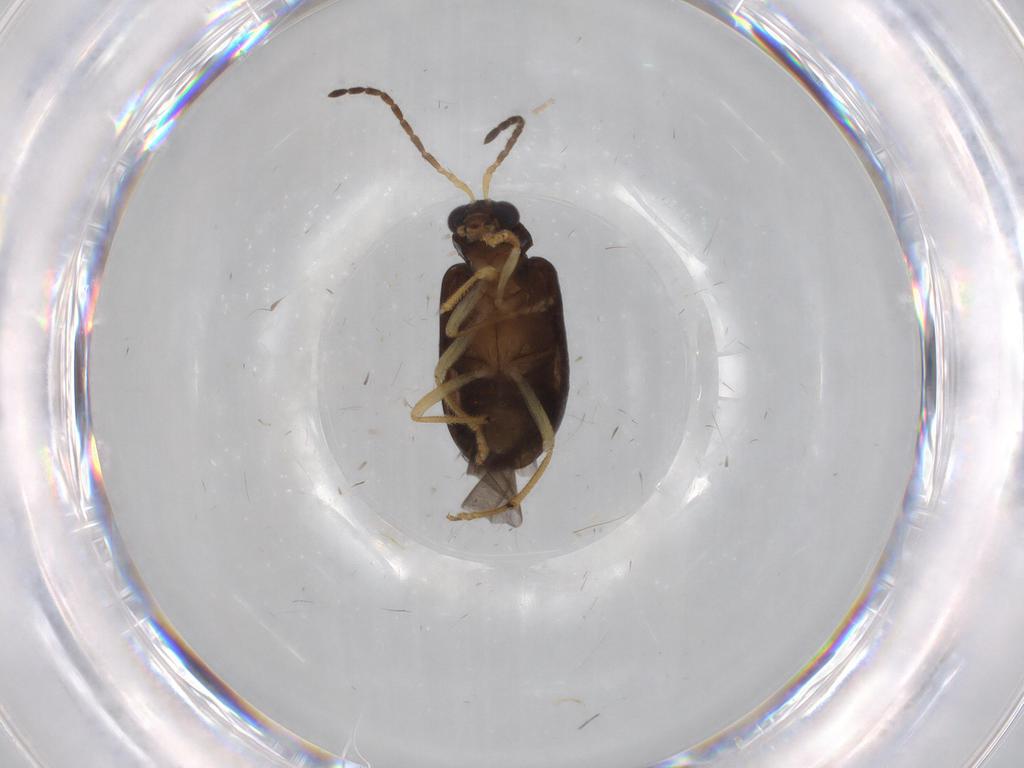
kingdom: Animalia
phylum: Arthropoda
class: Insecta
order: Coleoptera
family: Chrysomelidae
